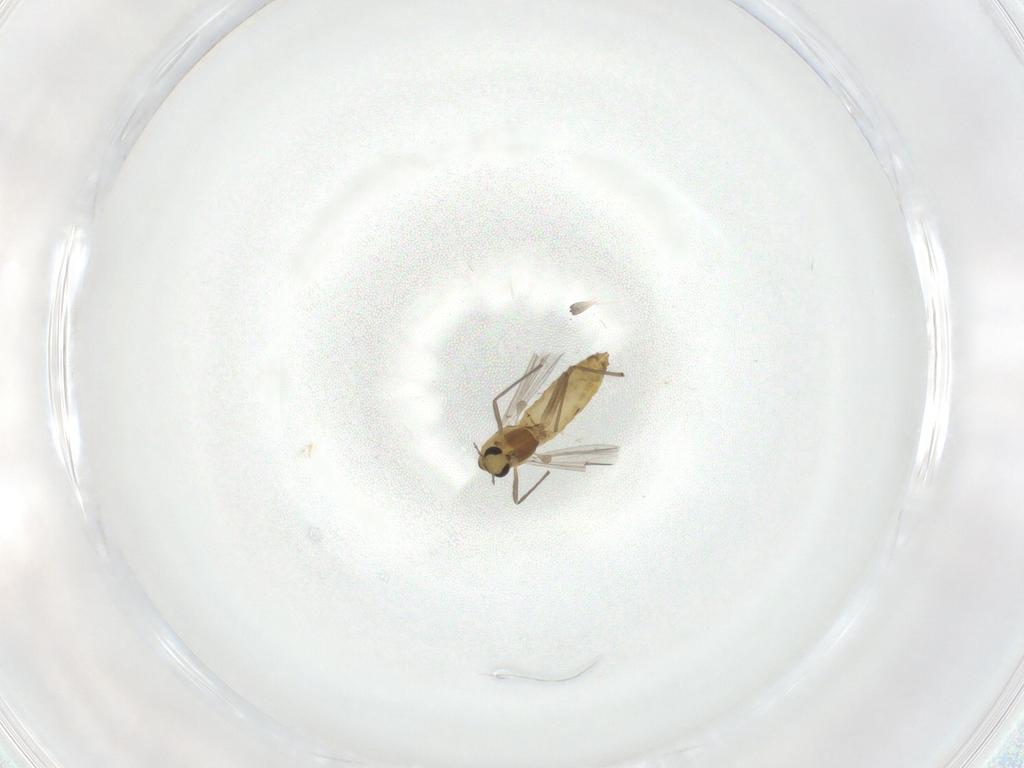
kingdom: Animalia
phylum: Arthropoda
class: Insecta
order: Diptera
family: Chironomidae
